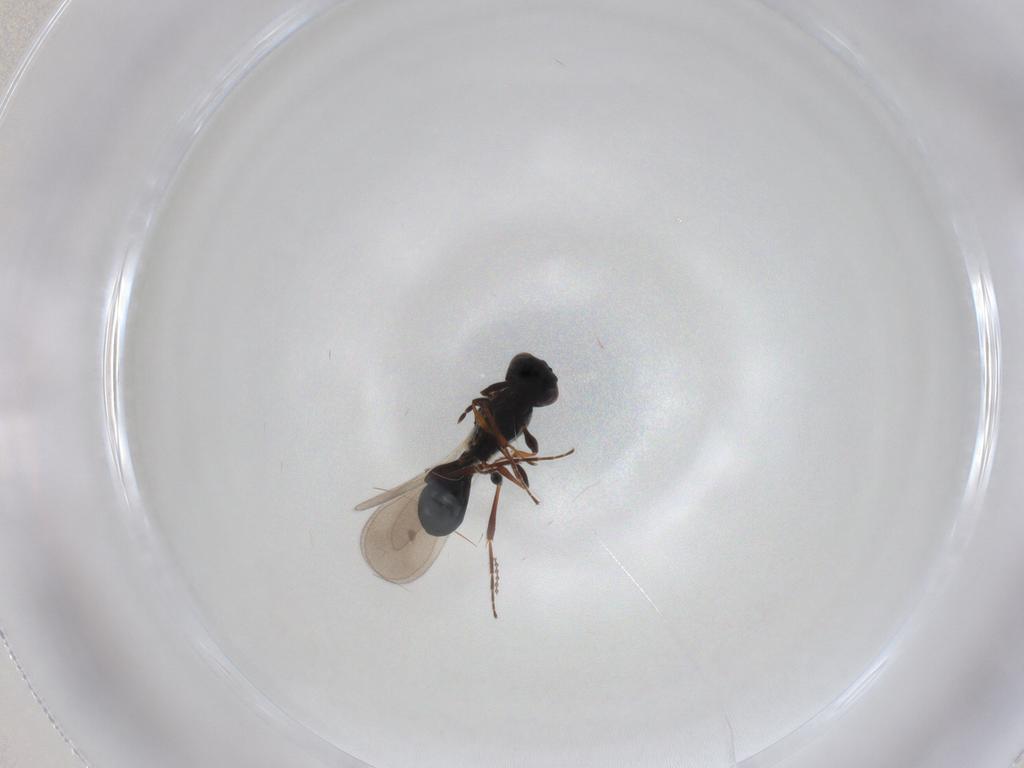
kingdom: Animalia
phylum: Arthropoda
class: Insecta
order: Hymenoptera
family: Platygastridae
